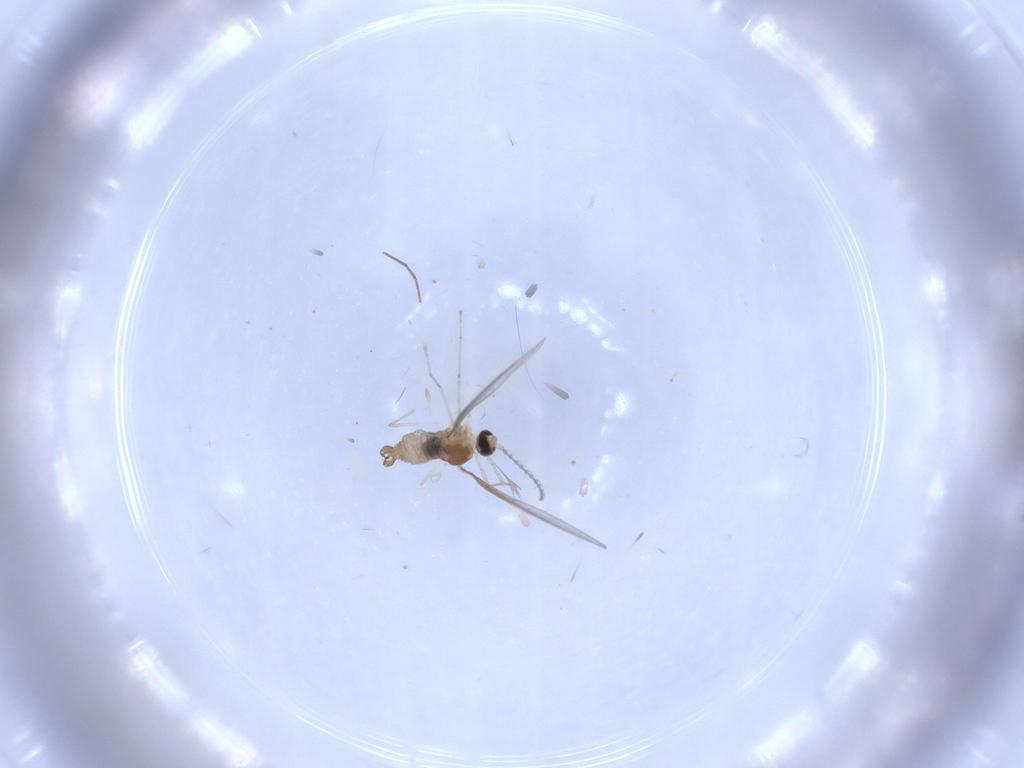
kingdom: Animalia
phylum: Arthropoda
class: Insecta
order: Diptera
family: Cecidomyiidae
